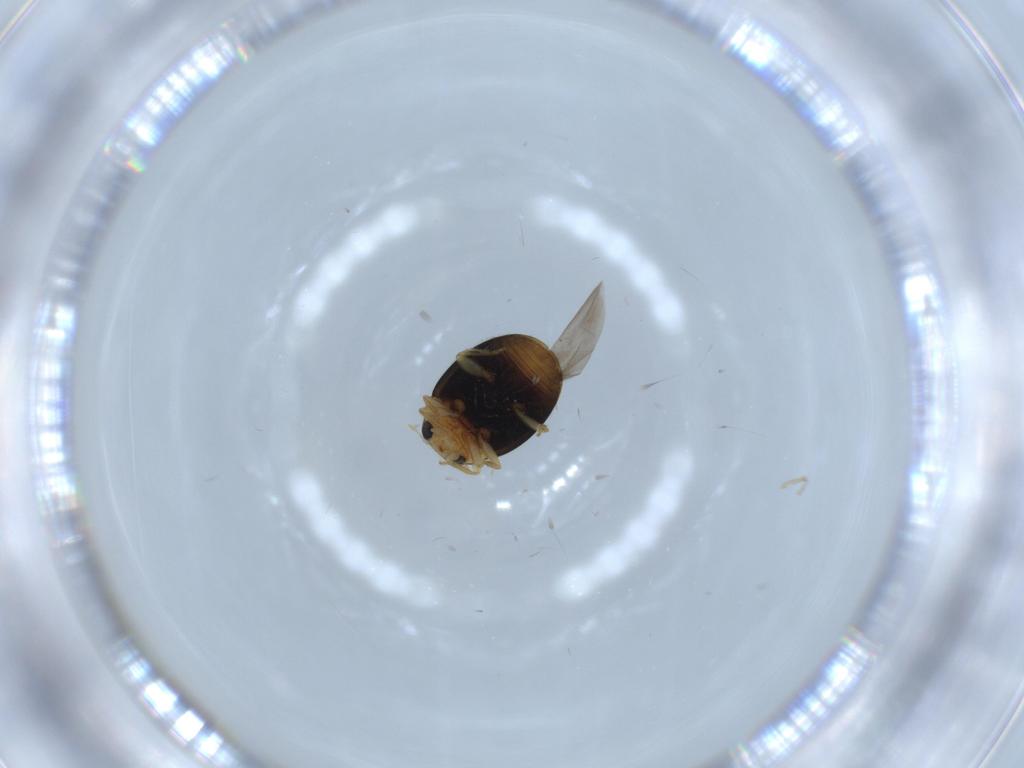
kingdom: Animalia
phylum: Arthropoda
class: Insecta
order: Coleoptera
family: Coccinellidae
